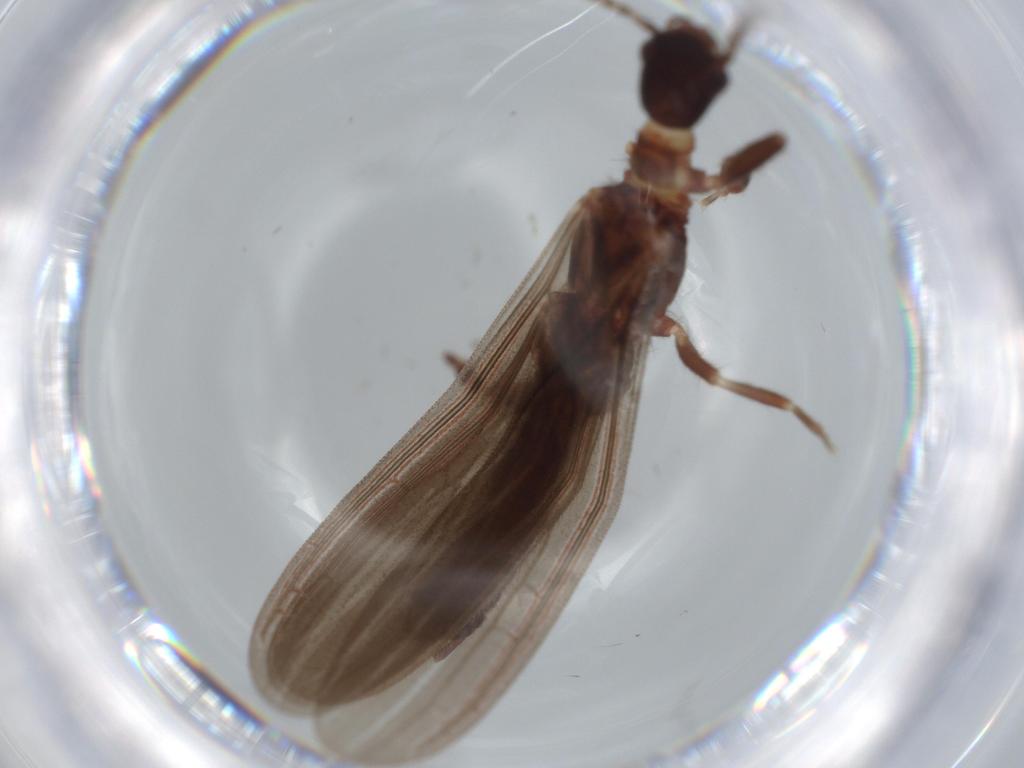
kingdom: Animalia
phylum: Arthropoda
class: Insecta
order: Embioptera
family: Anisembiidae
